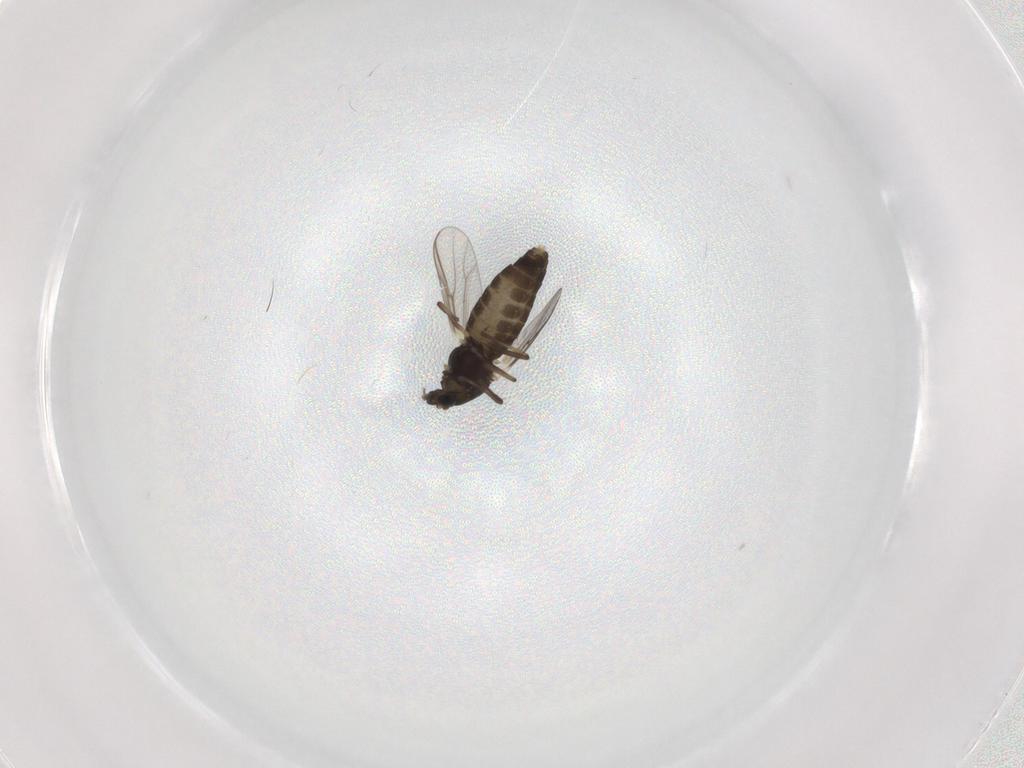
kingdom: Animalia
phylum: Arthropoda
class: Insecta
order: Diptera
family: Chironomidae
